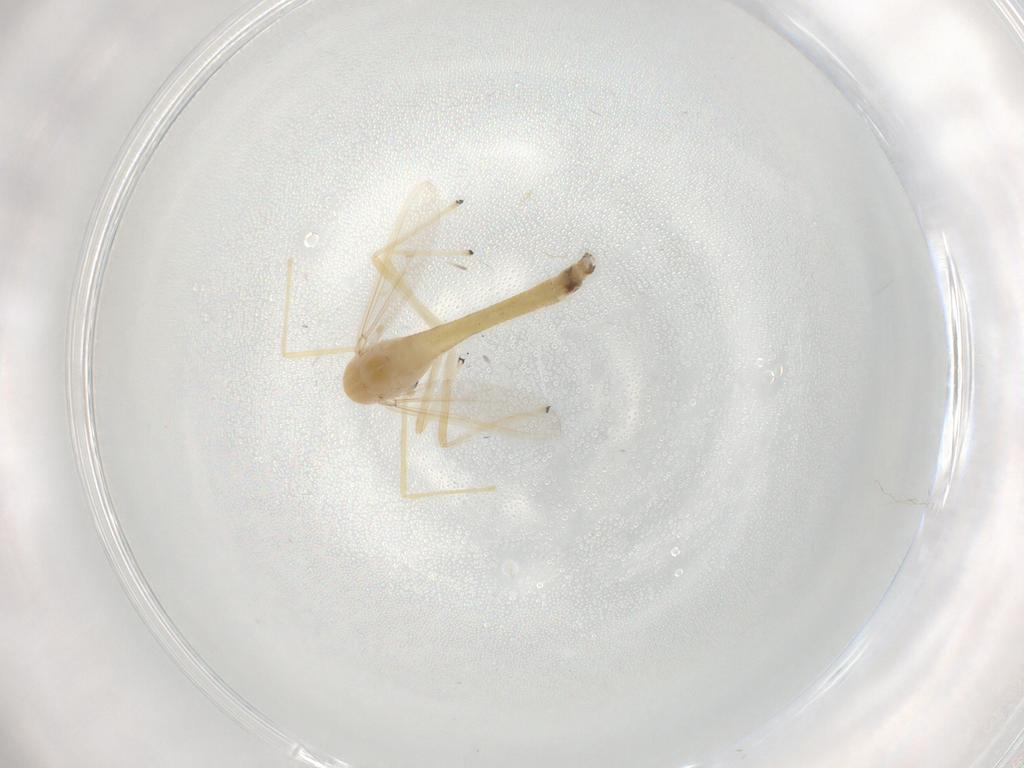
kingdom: Animalia
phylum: Arthropoda
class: Insecta
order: Diptera
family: Chironomidae
